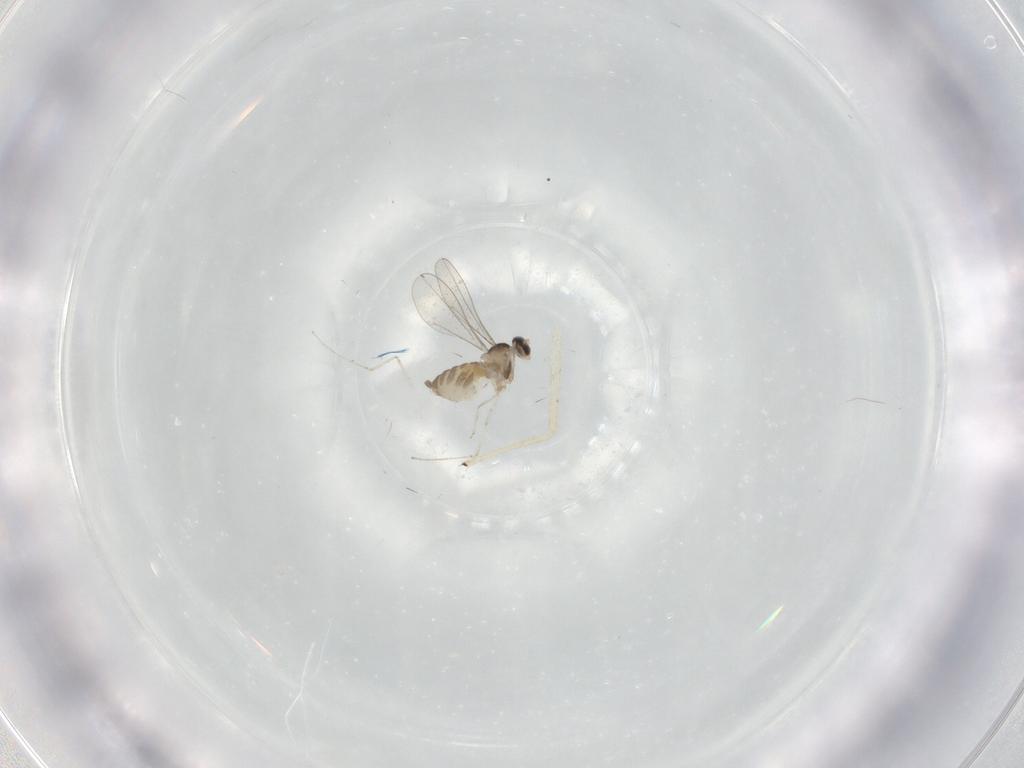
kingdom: Animalia
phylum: Arthropoda
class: Insecta
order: Diptera
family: Cecidomyiidae
